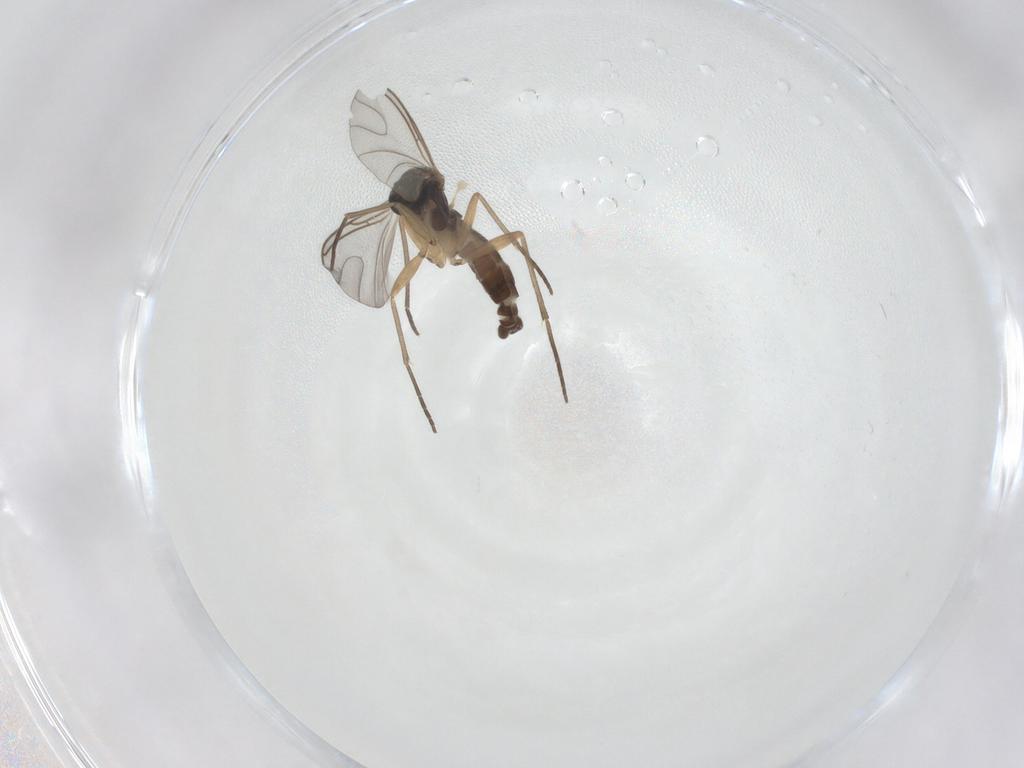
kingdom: Animalia
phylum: Arthropoda
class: Insecta
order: Diptera
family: Sciaridae
